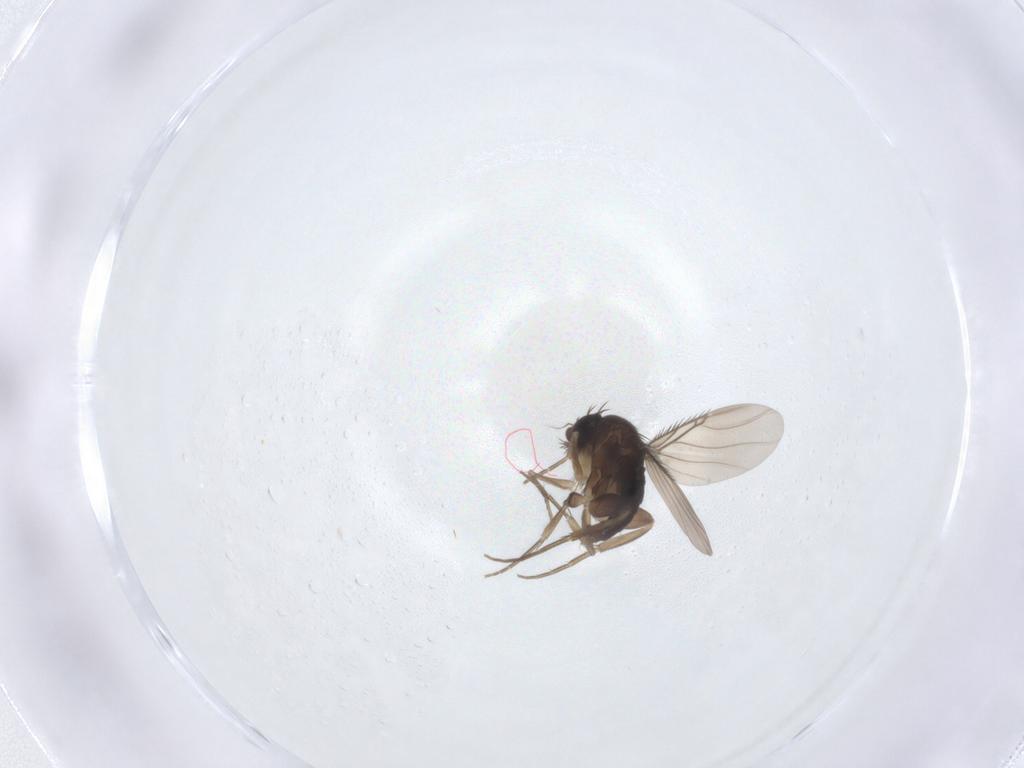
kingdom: Animalia
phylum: Arthropoda
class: Insecta
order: Diptera
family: Phoridae
